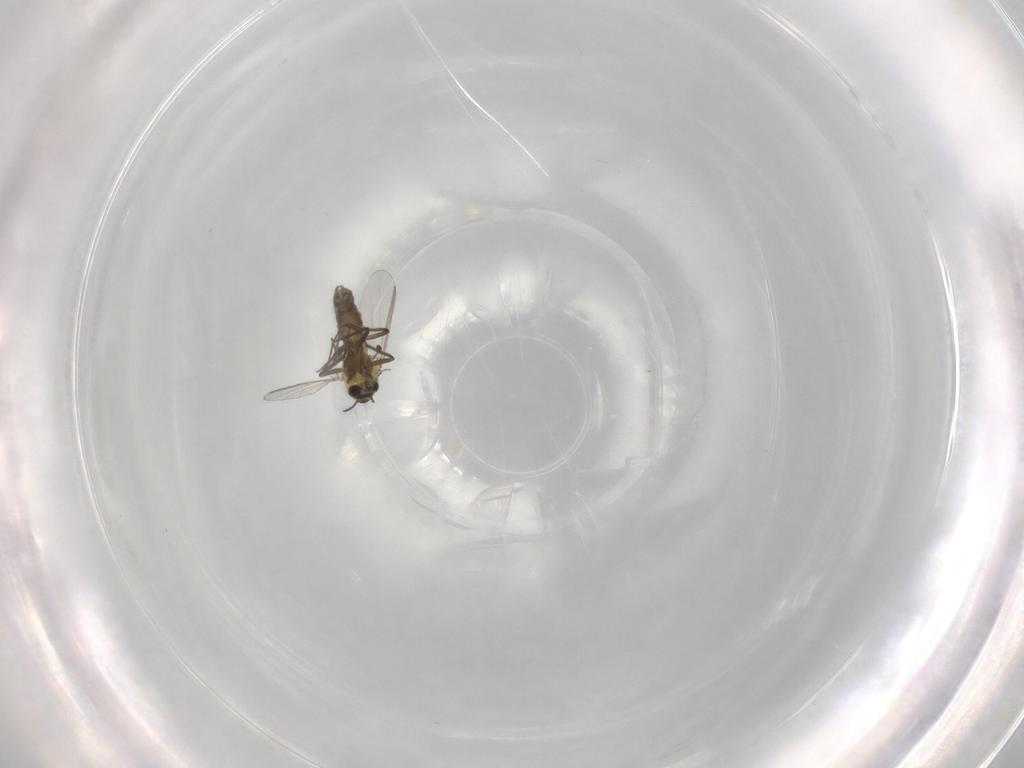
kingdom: Animalia
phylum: Arthropoda
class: Insecta
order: Diptera
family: Chironomidae
